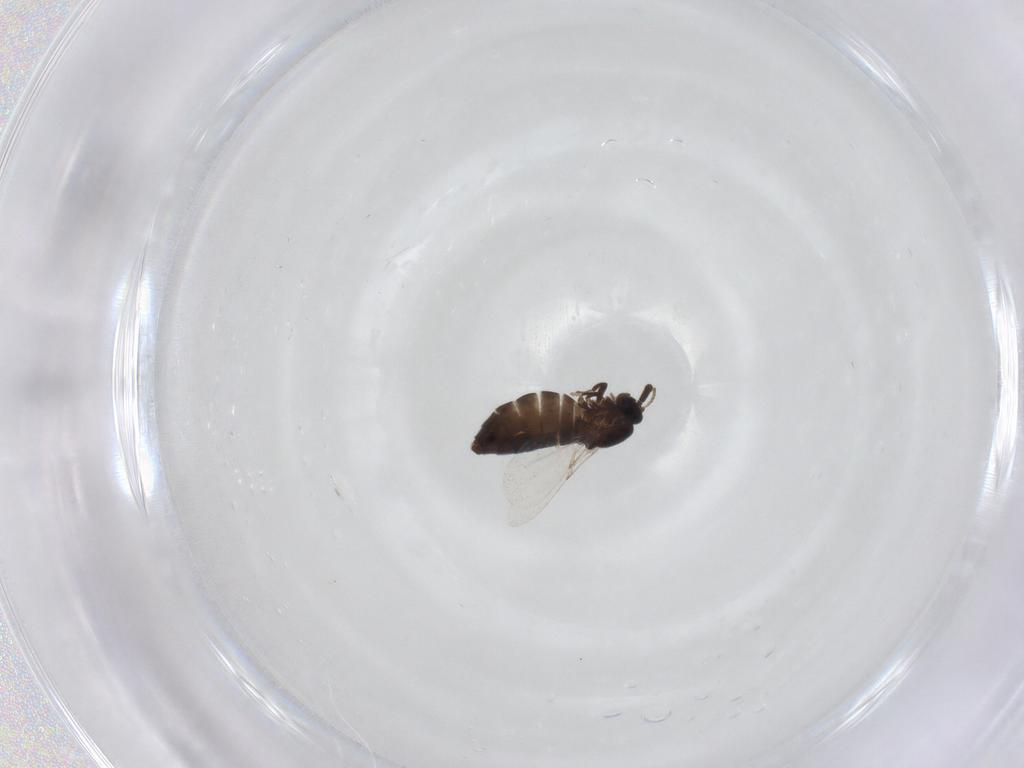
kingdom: Animalia
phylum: Arthropoda
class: Insecta
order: Diptera
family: Scatopsidae
